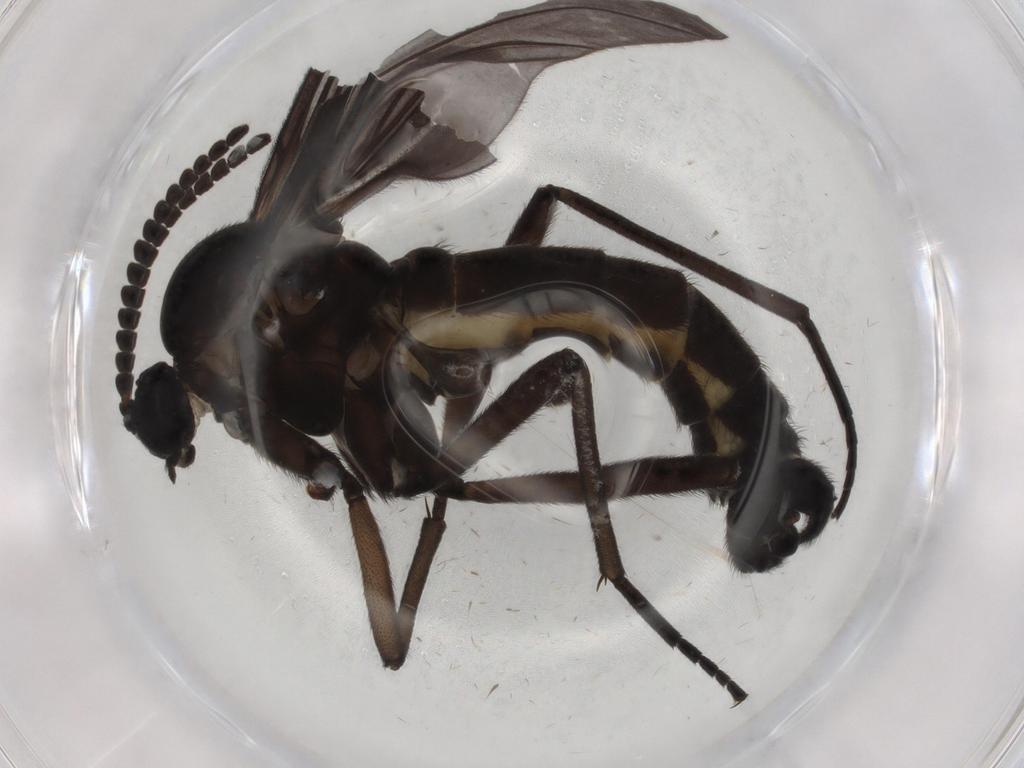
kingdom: Animalia
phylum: Arthropoda
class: Insecta
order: Diptera
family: Sciaridae
